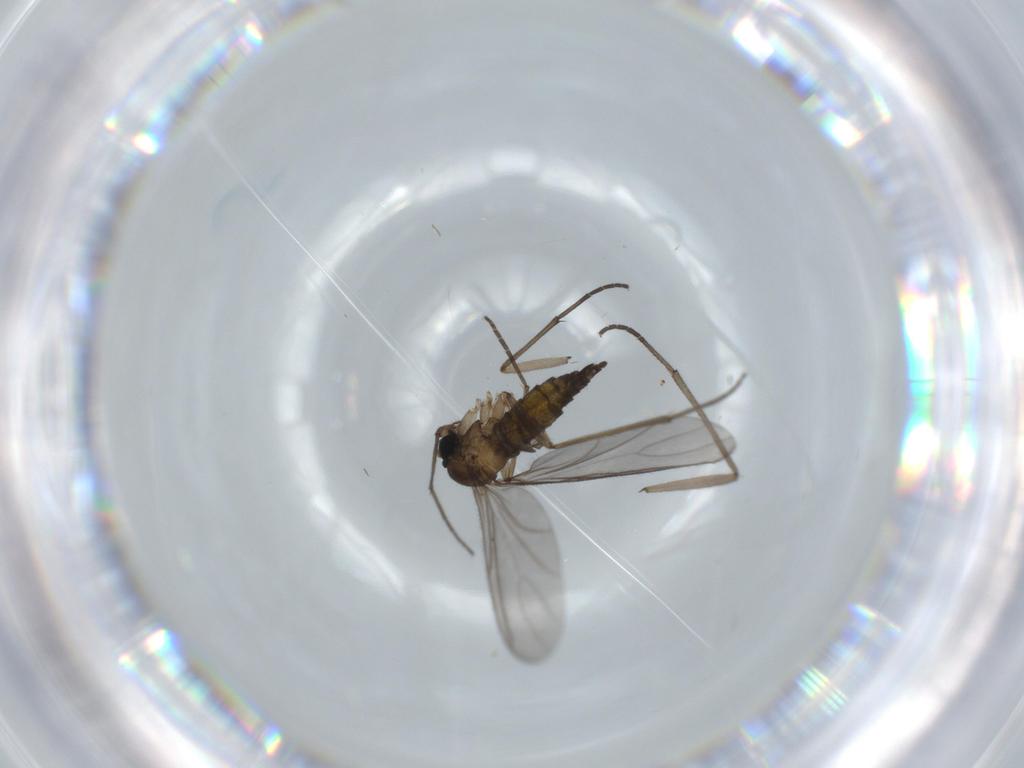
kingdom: Animalia
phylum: Arthropoda
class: Insecta
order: Diptera
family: Sciaridae
